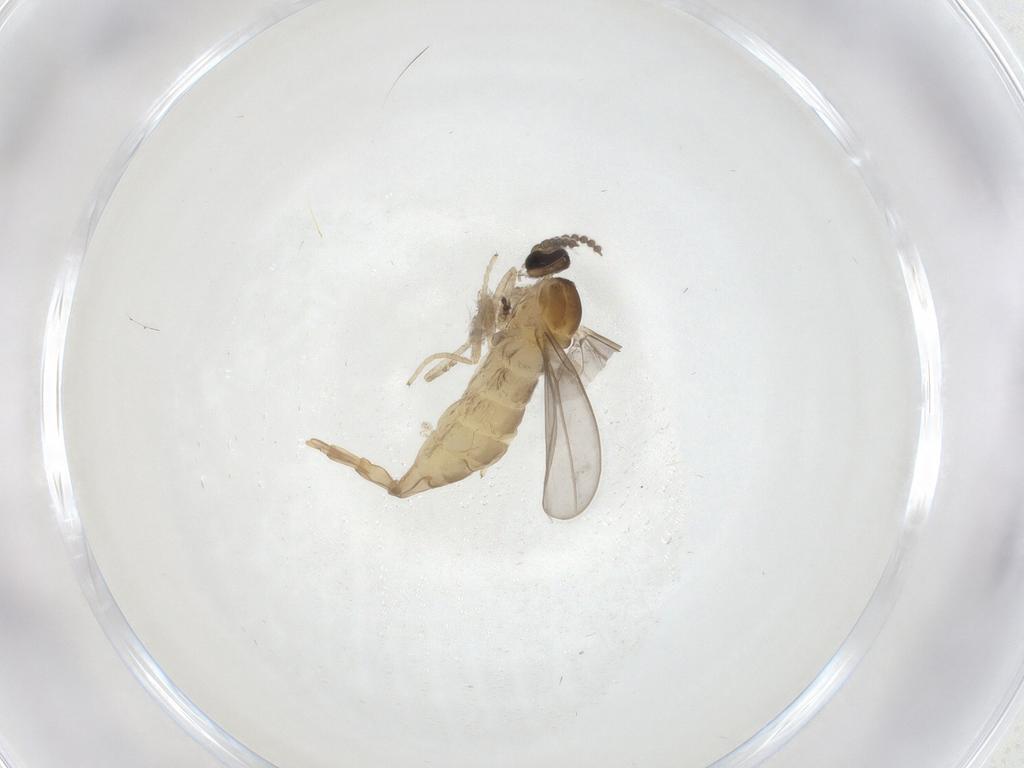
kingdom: Animalia
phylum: Arthropoda
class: Insecta
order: Diptera
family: Cecidomyiidae
